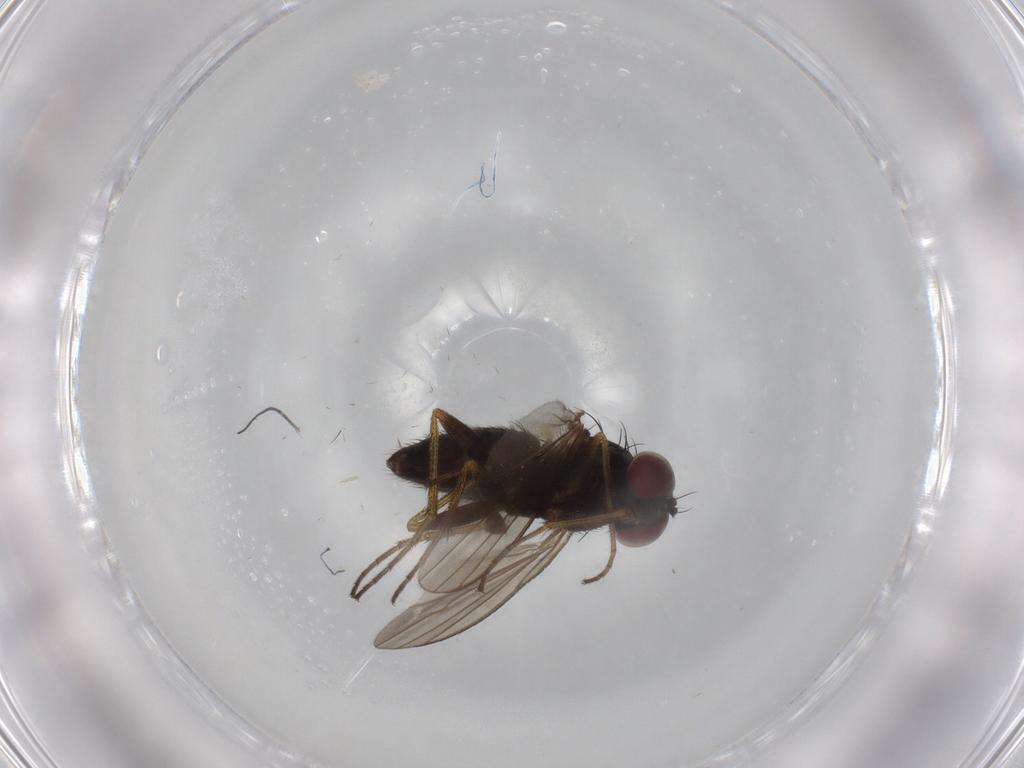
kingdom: Animalia
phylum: Arthropoda
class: Insecta
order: Diptera
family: Dolichopodidae
